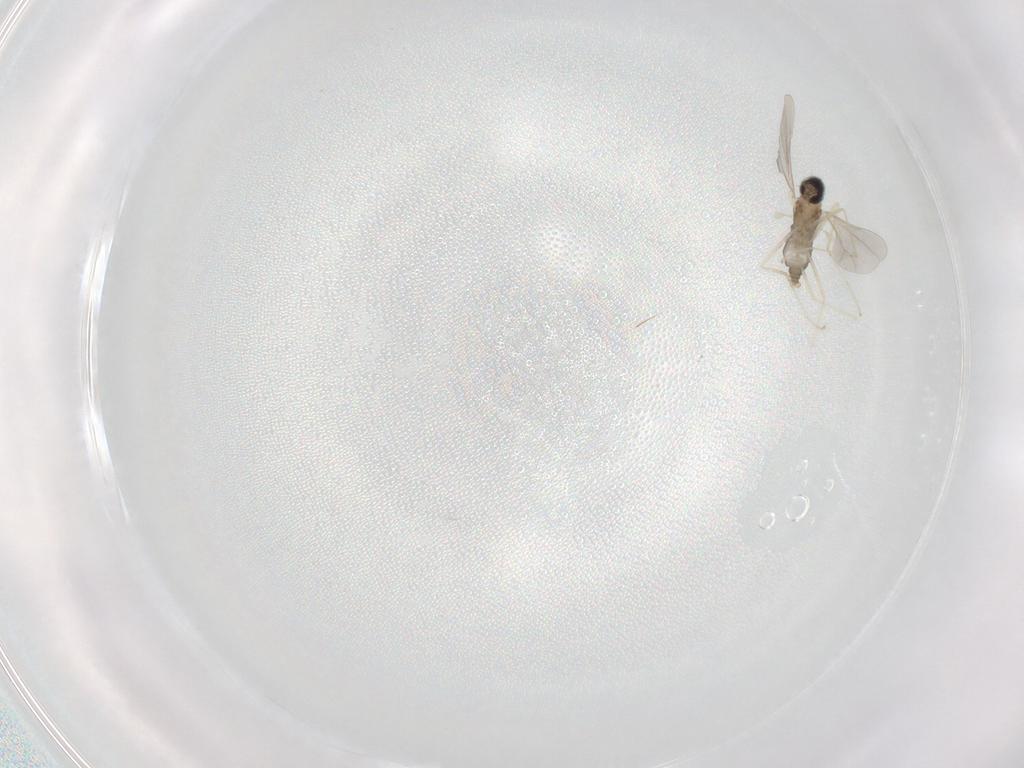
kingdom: Animalia
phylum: Arthropoda
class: Insecta
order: Diptera
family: Cecidomyiidae
